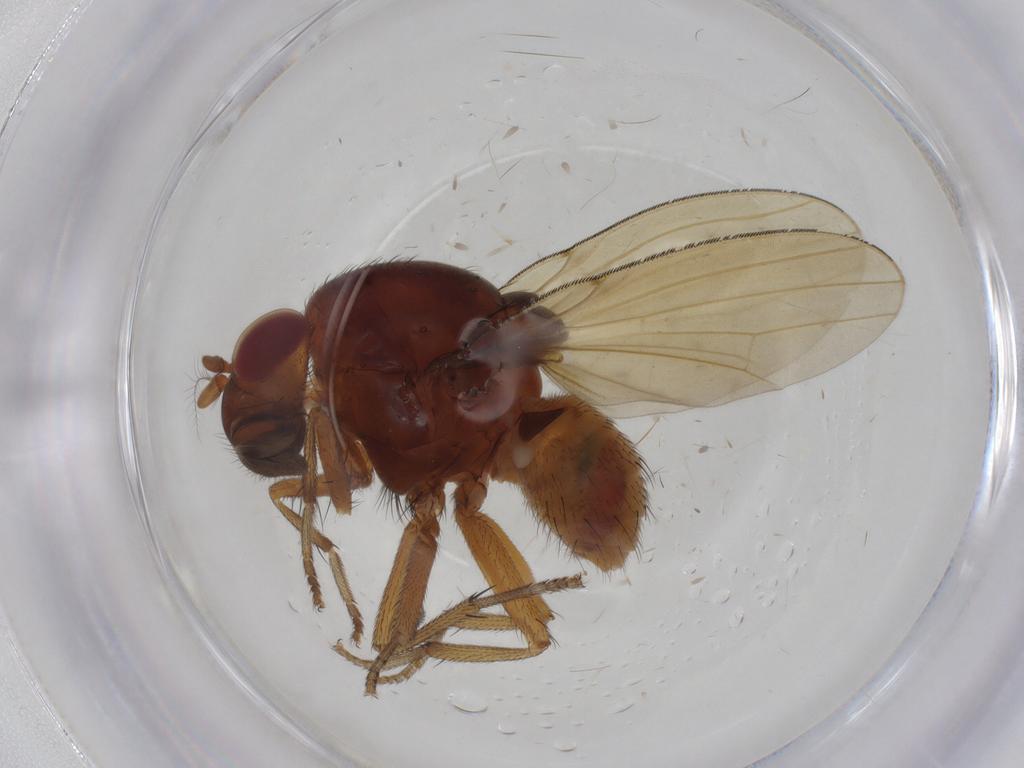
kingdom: Animalia
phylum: Arthropoda
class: Insecta
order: Diptera
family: Lauxaniidae
